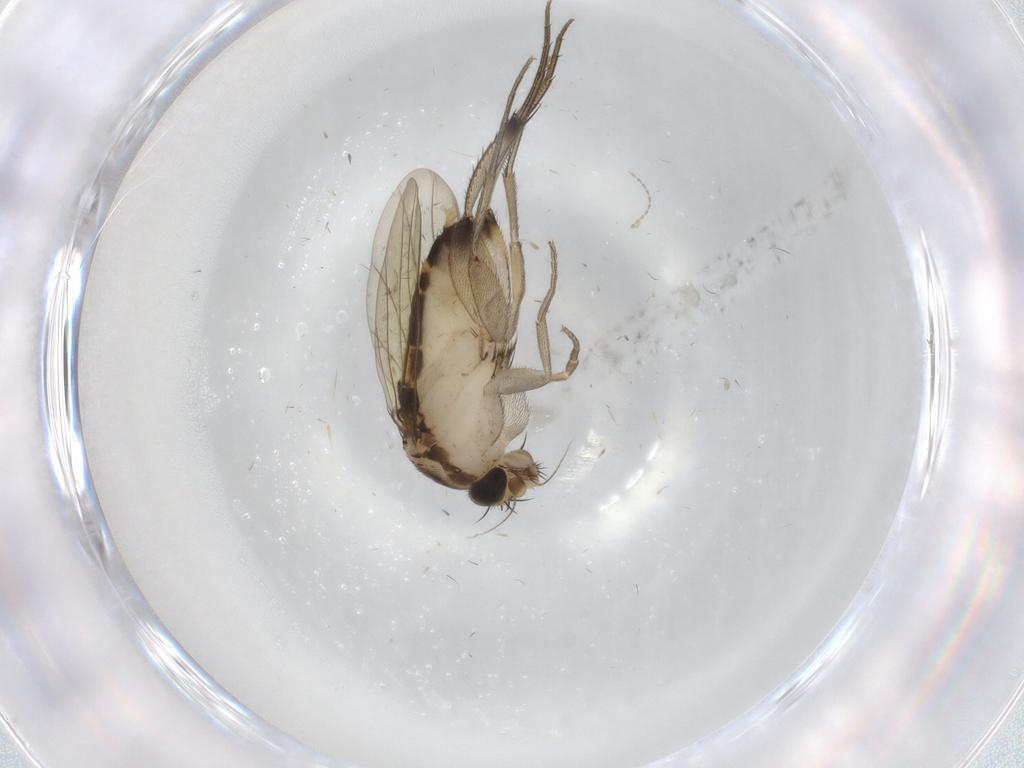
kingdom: Animalia
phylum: Arthropoda
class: Insecta
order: Diptera
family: Phoridae
